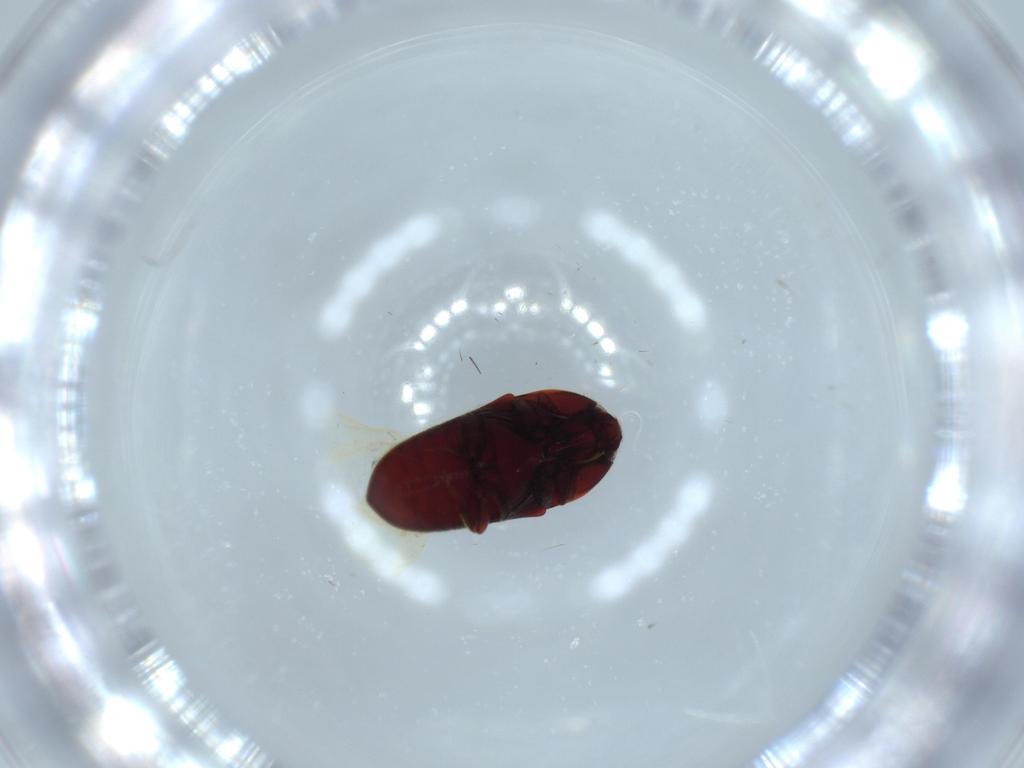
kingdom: Animalia
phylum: Arthropoda
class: Insecta
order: Coleoptera
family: Throscidae
